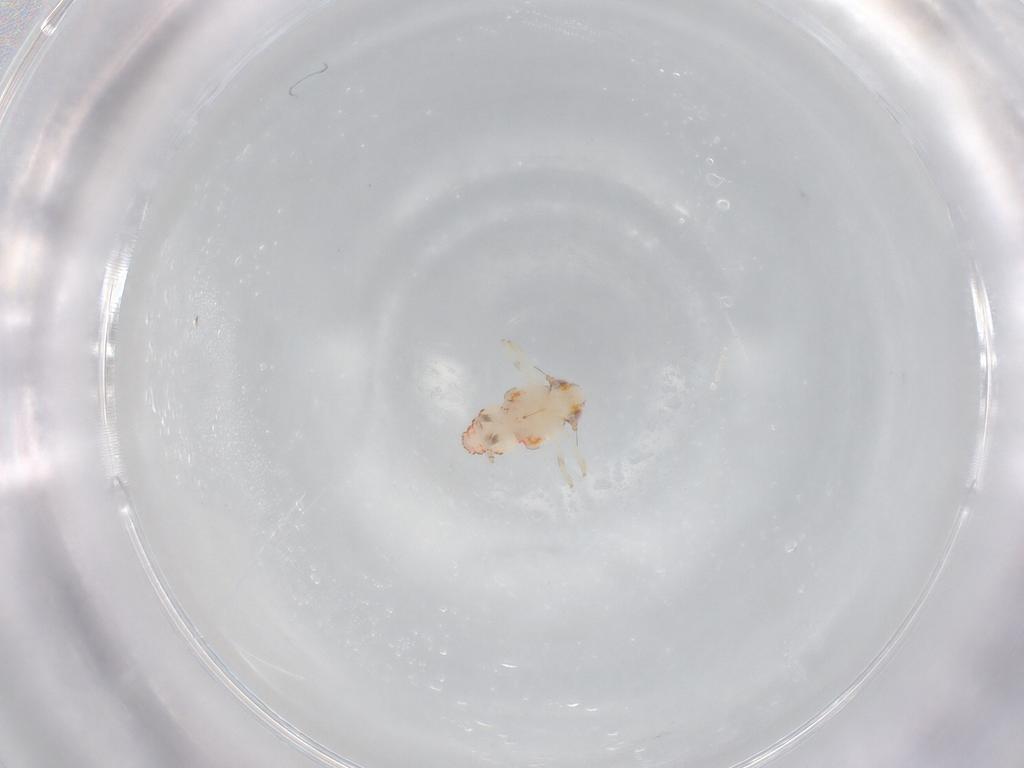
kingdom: Animalia
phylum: Arthropoda
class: Insecta
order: Hemiptera
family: Nogodinidae
